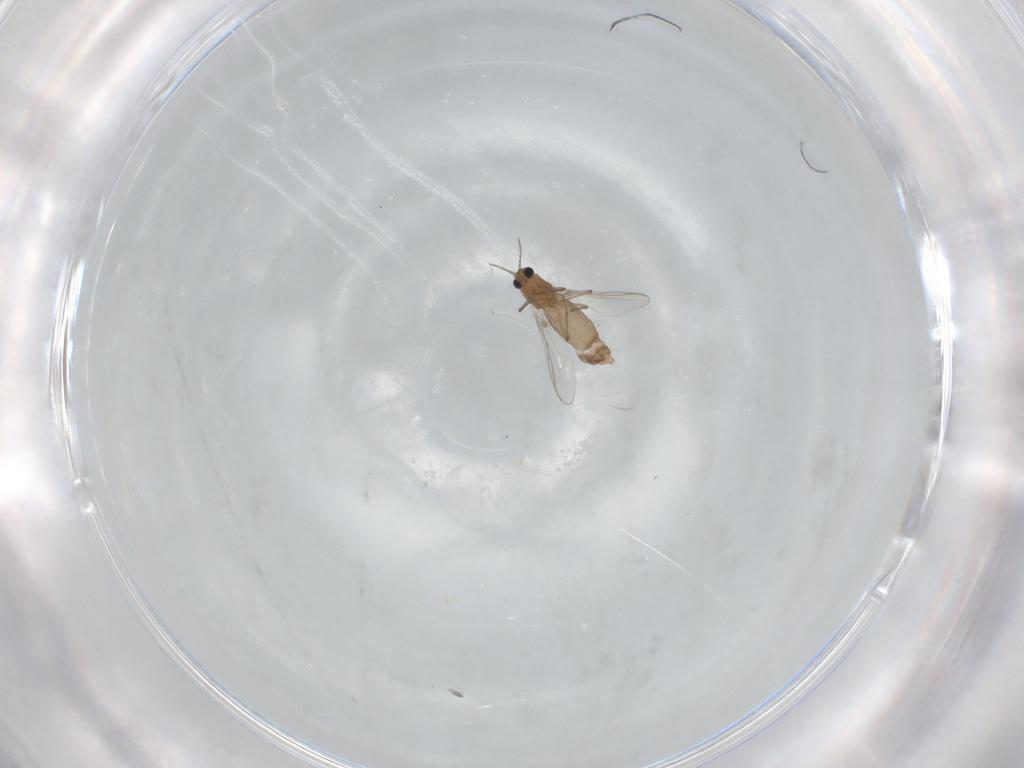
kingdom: Animalia
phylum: Arthropoda
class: Insecta
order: Diptera
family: Chironomidae
